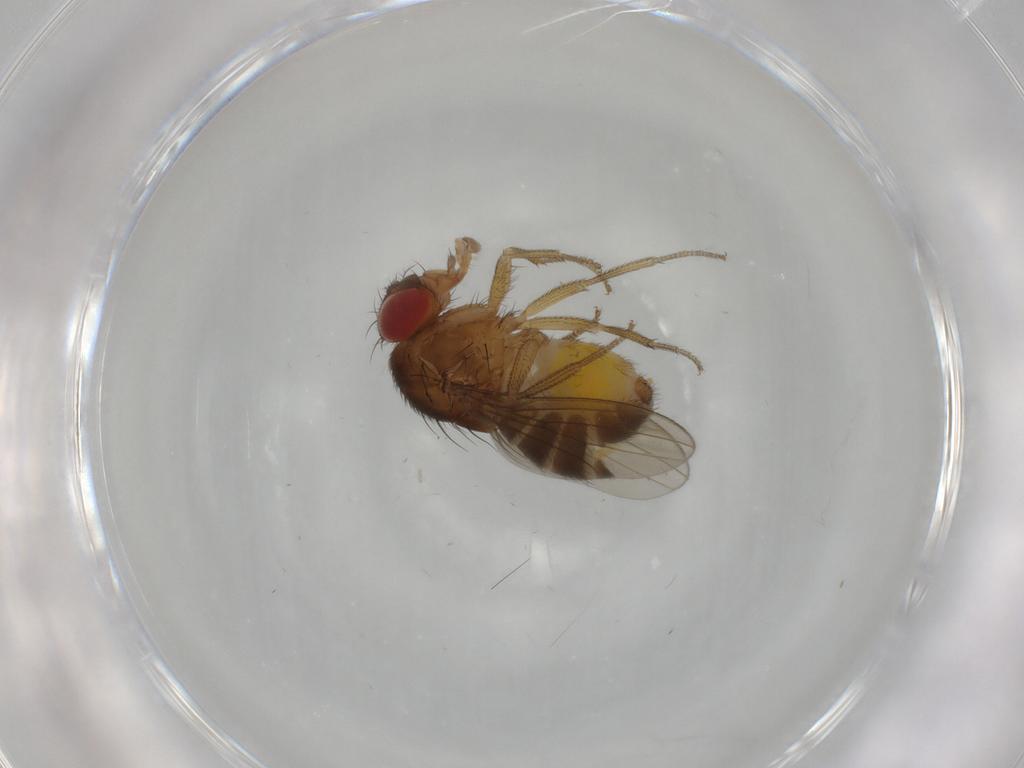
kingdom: Animalia
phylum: Arthropoda
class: Insecta
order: Diptera
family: Drosophilidae
